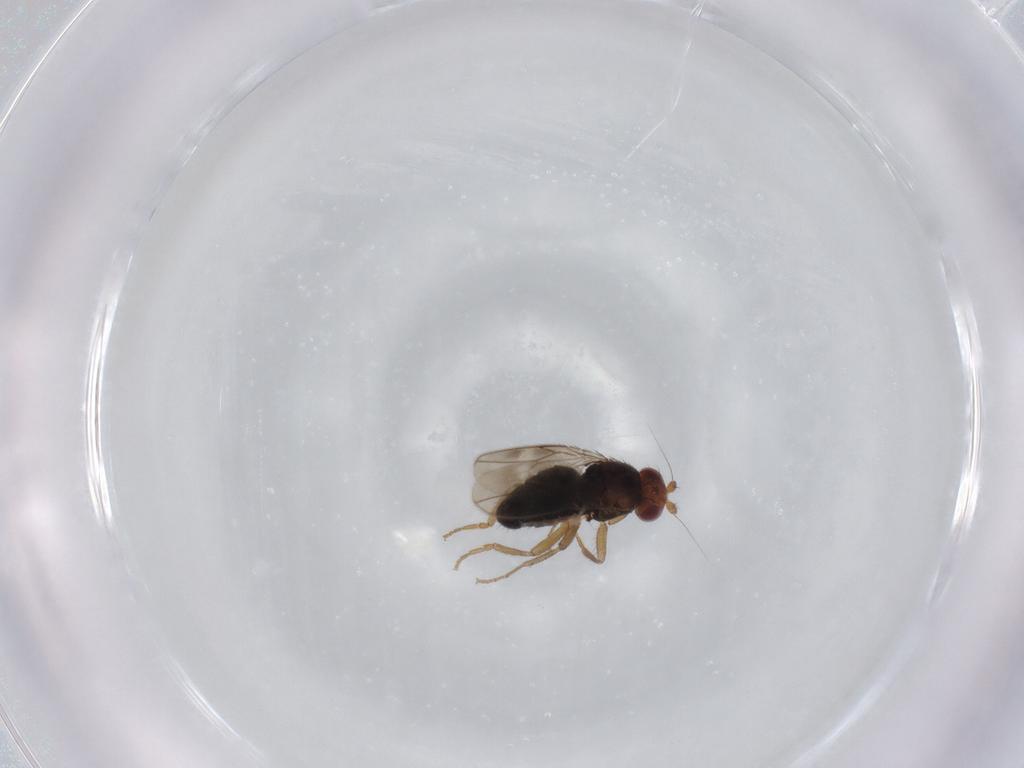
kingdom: Animalia
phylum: Arthropoda
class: Insecta
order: Diptera
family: Sphaeroceridae
